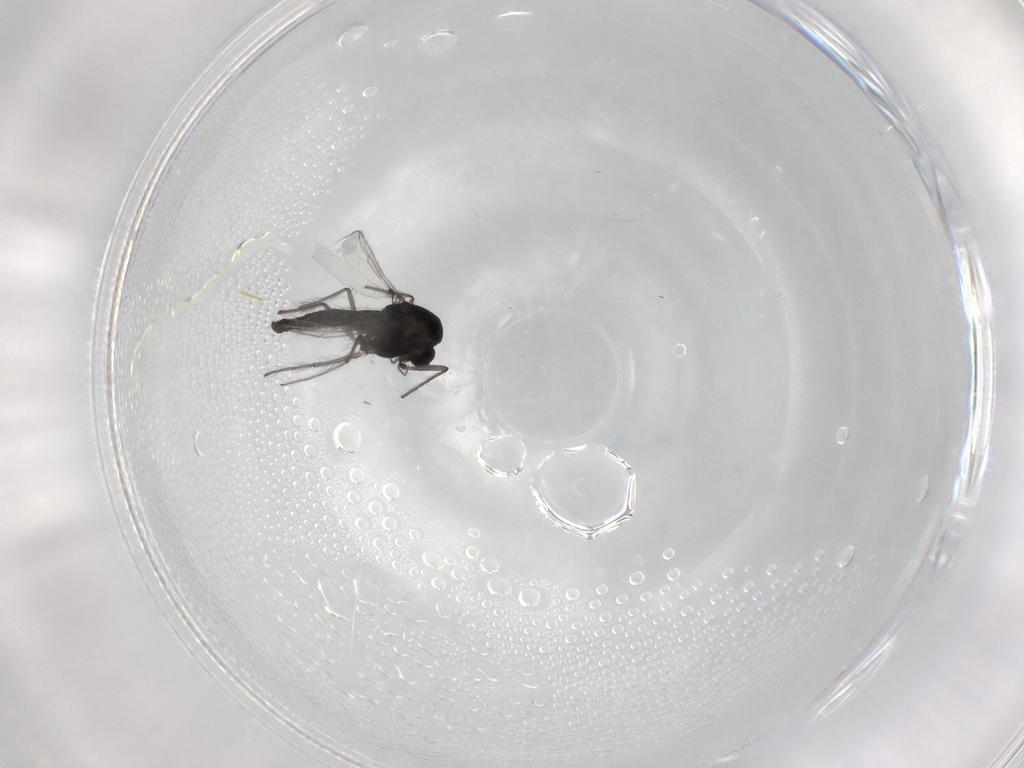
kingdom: Animalia
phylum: Arthropoda
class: Insecta
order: Diptera
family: Chironomidae
